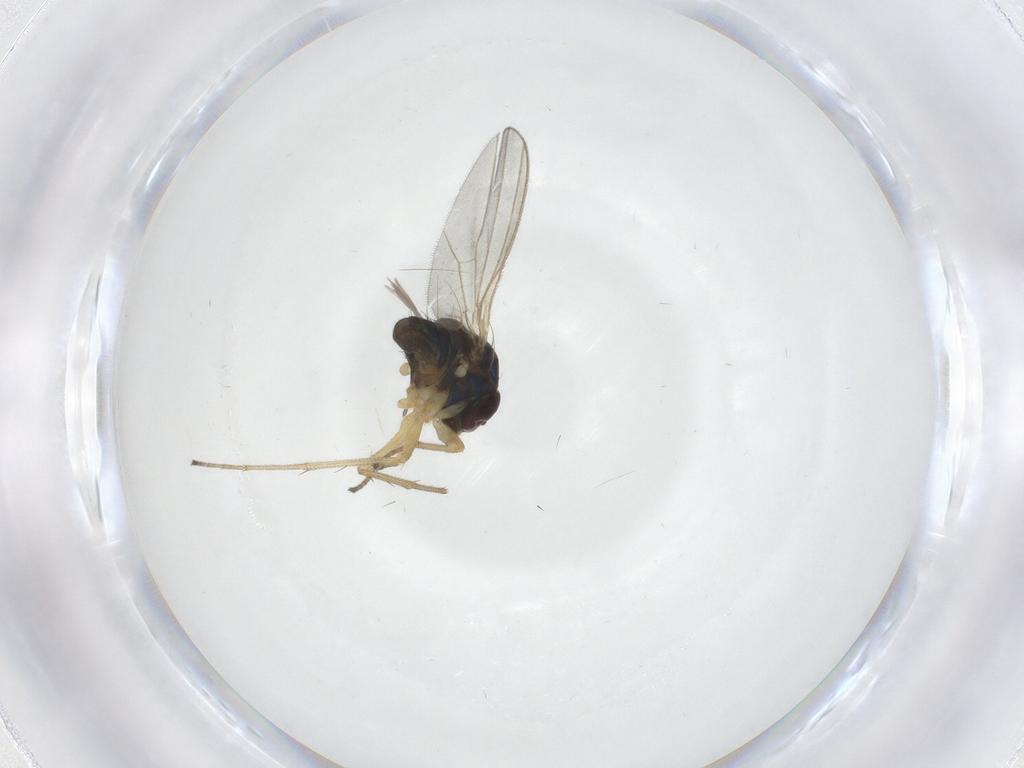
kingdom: Animalia
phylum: Arthropoda
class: Insecta
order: Diptera
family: Dolichopodidae
